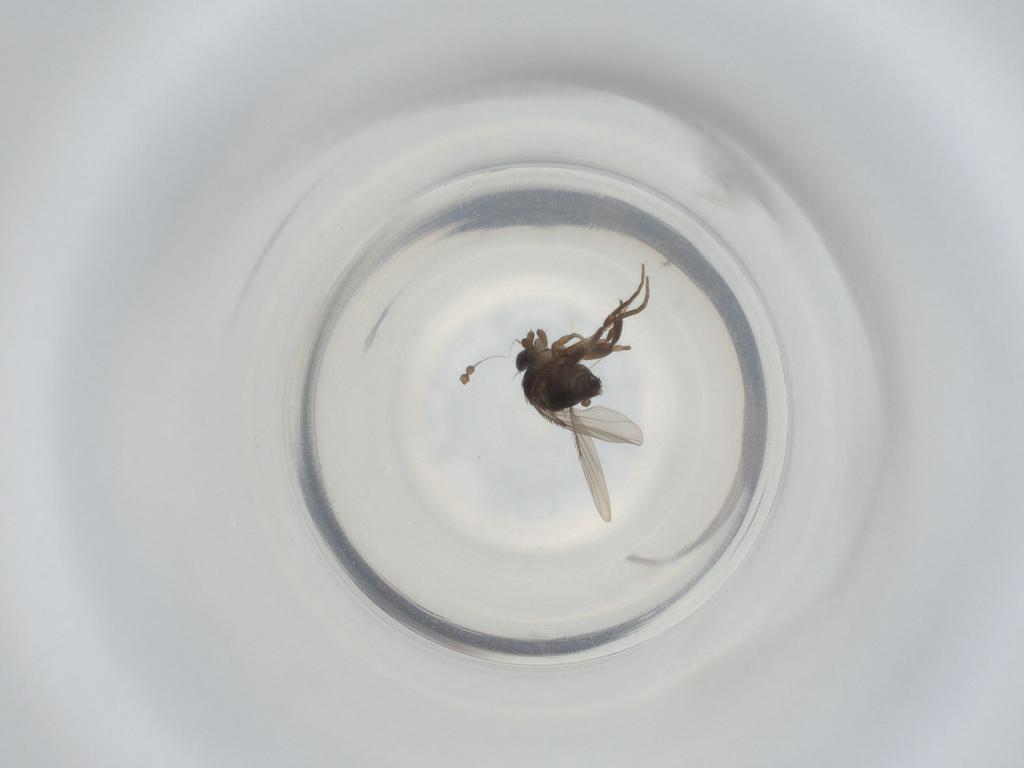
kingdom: Animalia
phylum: Arthropoda
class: Insecta
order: Diptera
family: Phoridae
